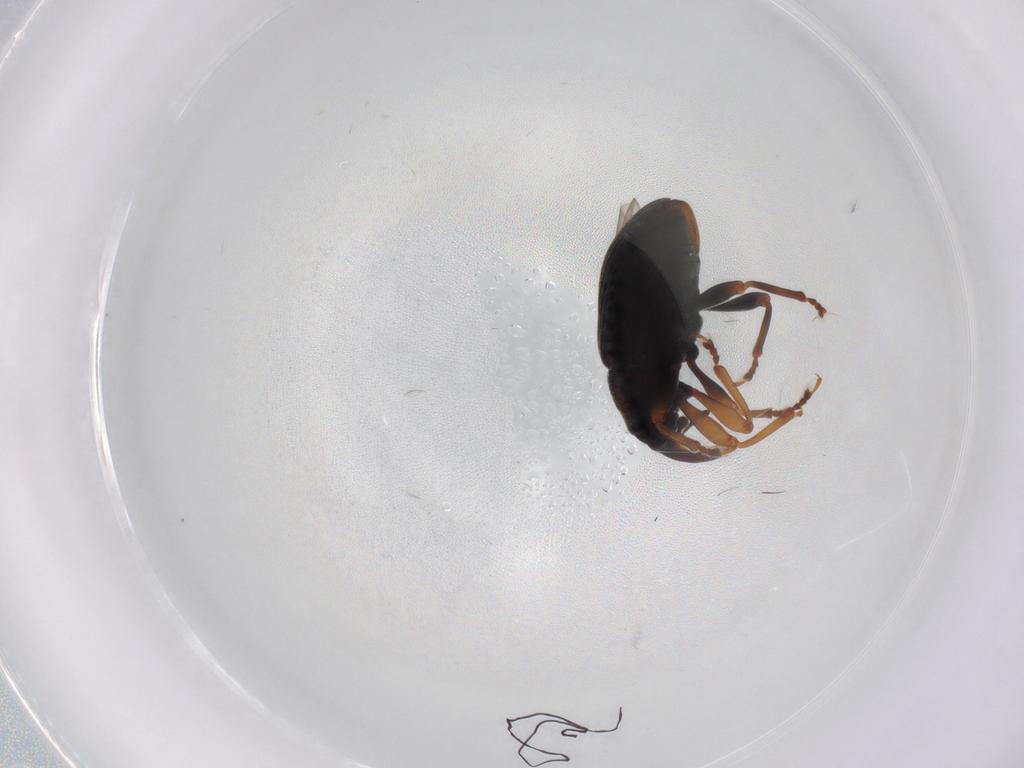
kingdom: Animalia
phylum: Arthropoda
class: Insecta
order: Coleoptera
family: Curculionidae
